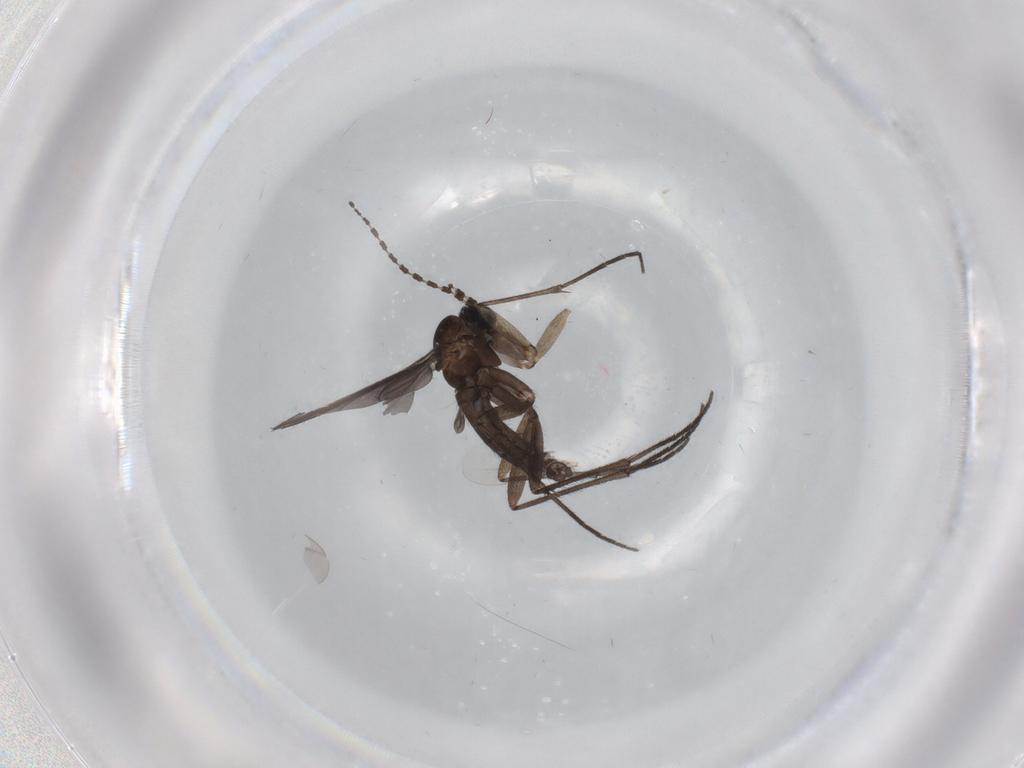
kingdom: Animalia
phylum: Arthropoda
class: Insecta
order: Diptera
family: Sciaridae
